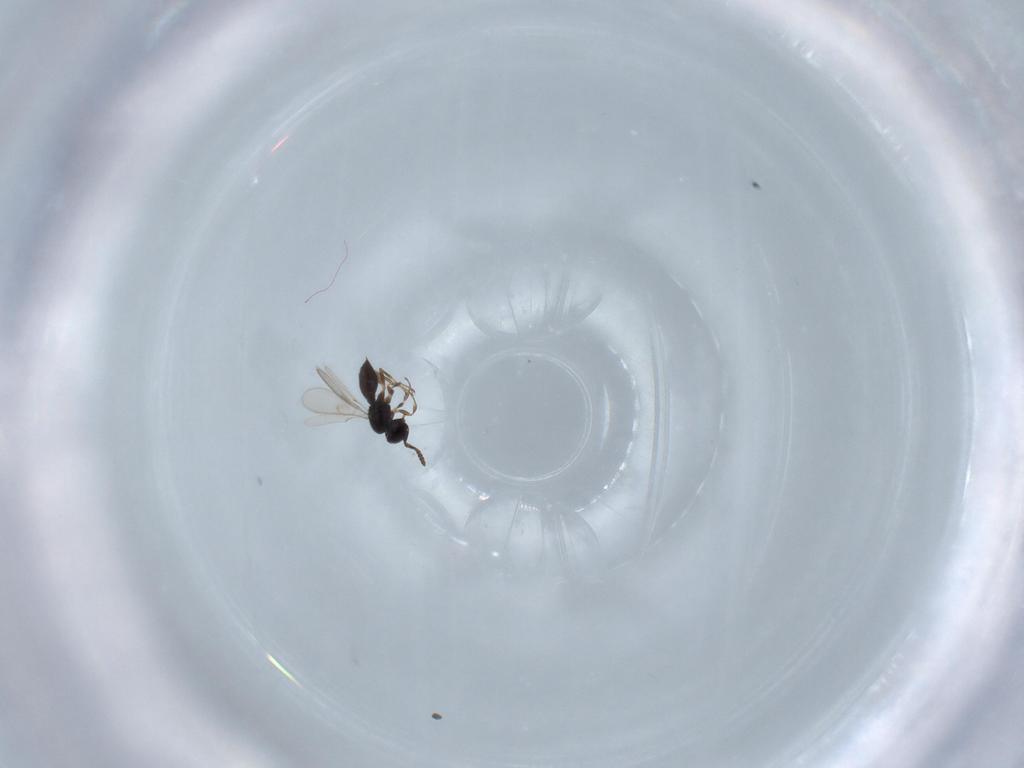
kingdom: Animalia
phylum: Arthropoda
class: Insecta
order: Hymenoptera
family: Scelionidae
